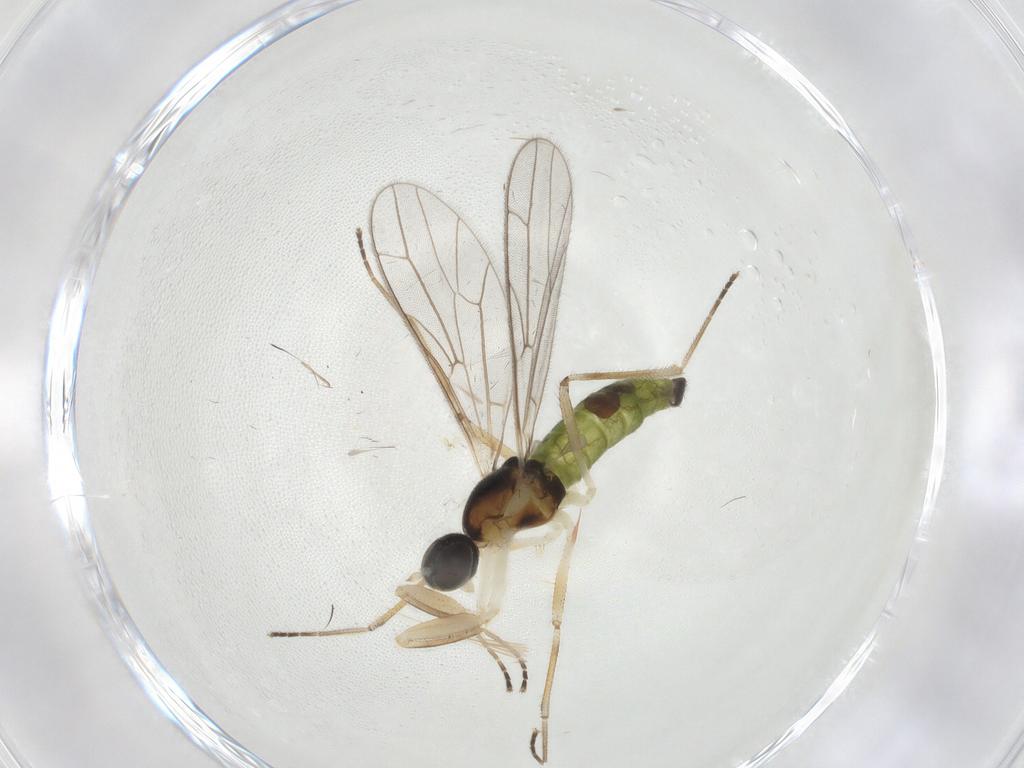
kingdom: Animalia
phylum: Arthropoda
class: Insecta
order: Diptera
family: Empididae
